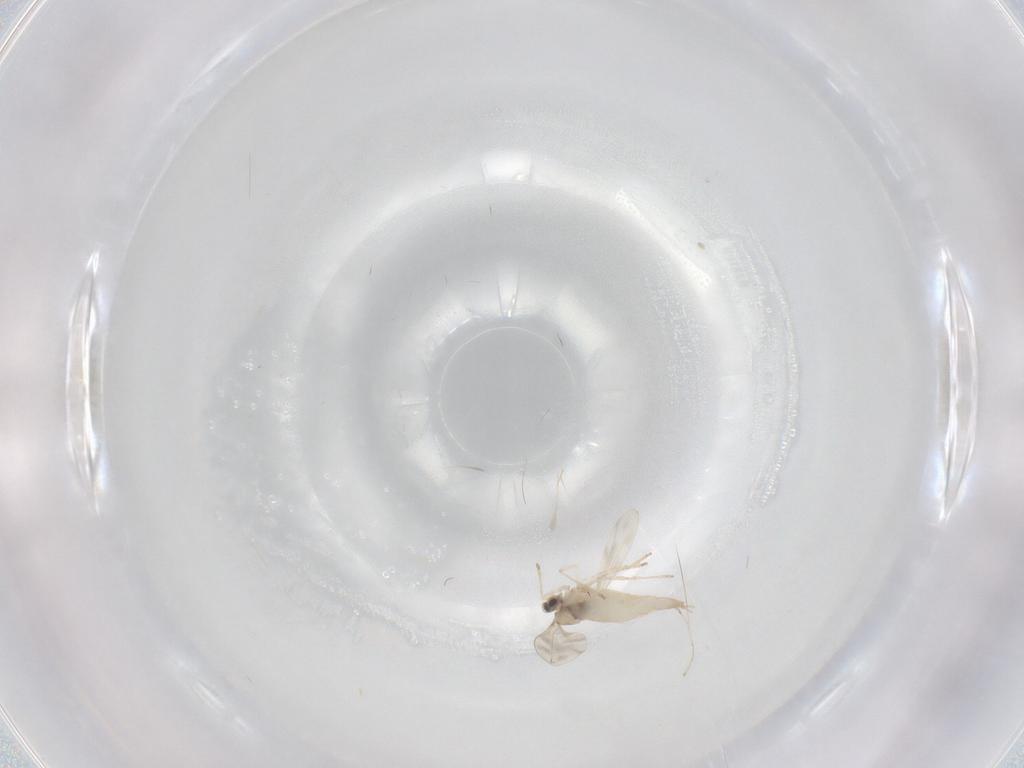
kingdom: Animalia
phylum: Arthropoda
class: Insecta
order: Diptera
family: Cecidomyiidae
